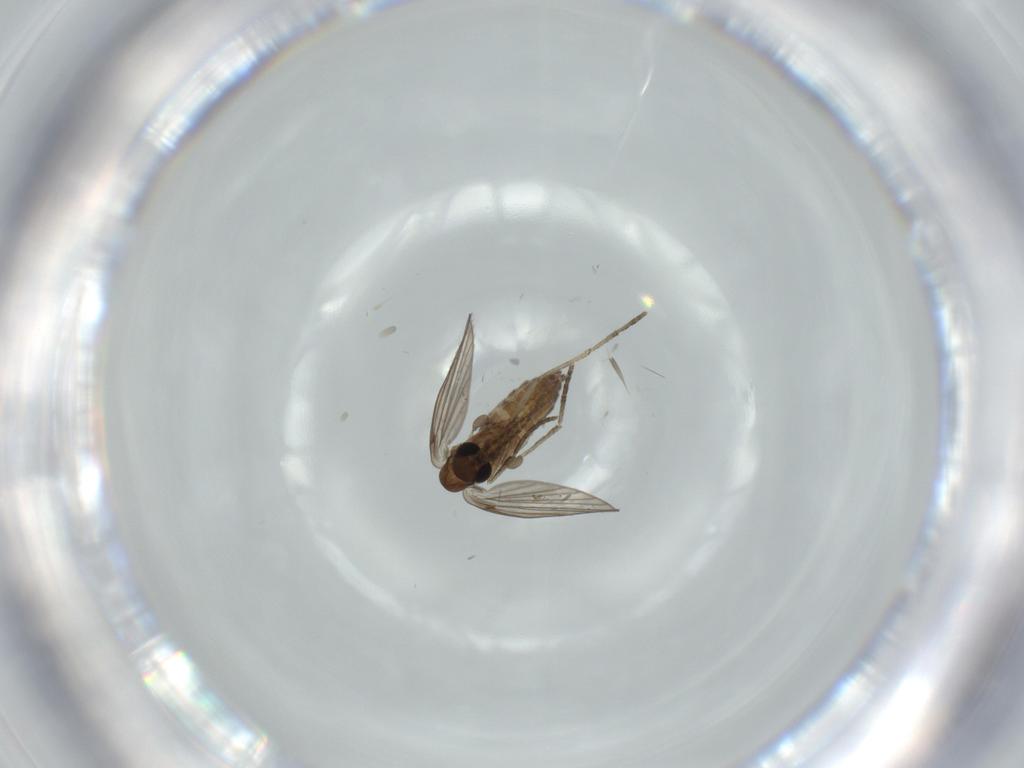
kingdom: Animalia
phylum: Arthropoda
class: Insecta
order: Diptera
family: Psychodidae
